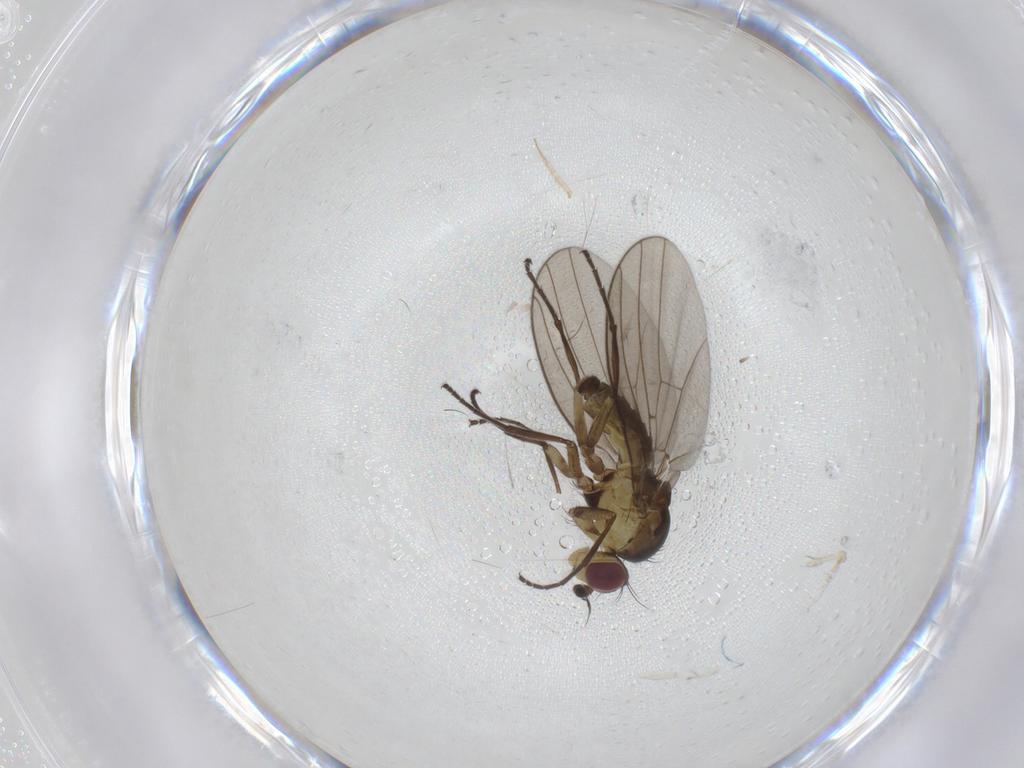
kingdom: Animalia
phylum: Arthropoda
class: Insecta
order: Diptera
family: Agromyzidae
